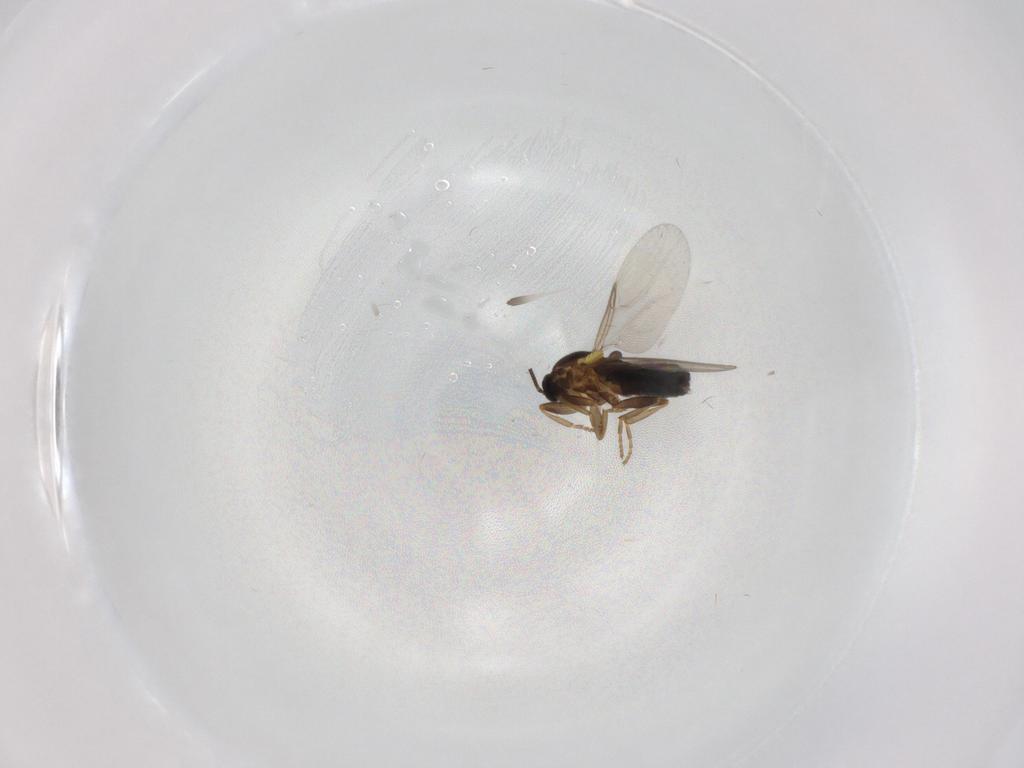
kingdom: Animalia
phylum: Arthropoda
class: Insecta
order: Diptera
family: Scatopsidae
